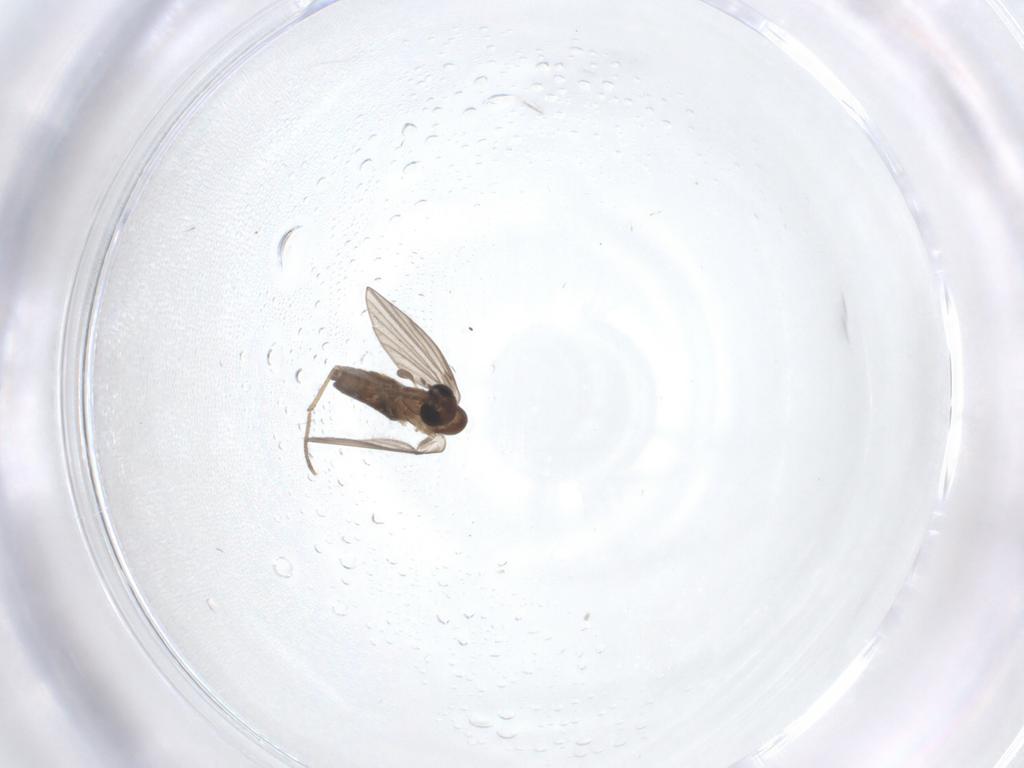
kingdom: Animalia
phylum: Arthropoda
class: Insecta
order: Diptera
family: Psychodidae
